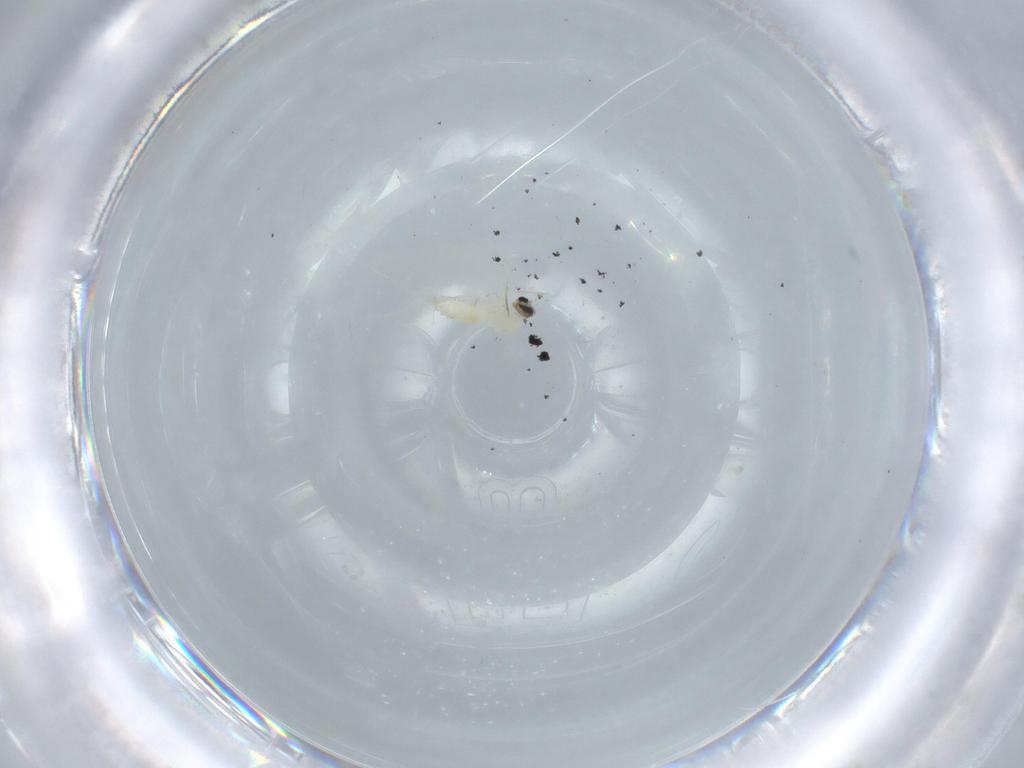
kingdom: Animalia
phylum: Arthropoda
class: Insecta
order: Diptera
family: Cecidomyiidae
